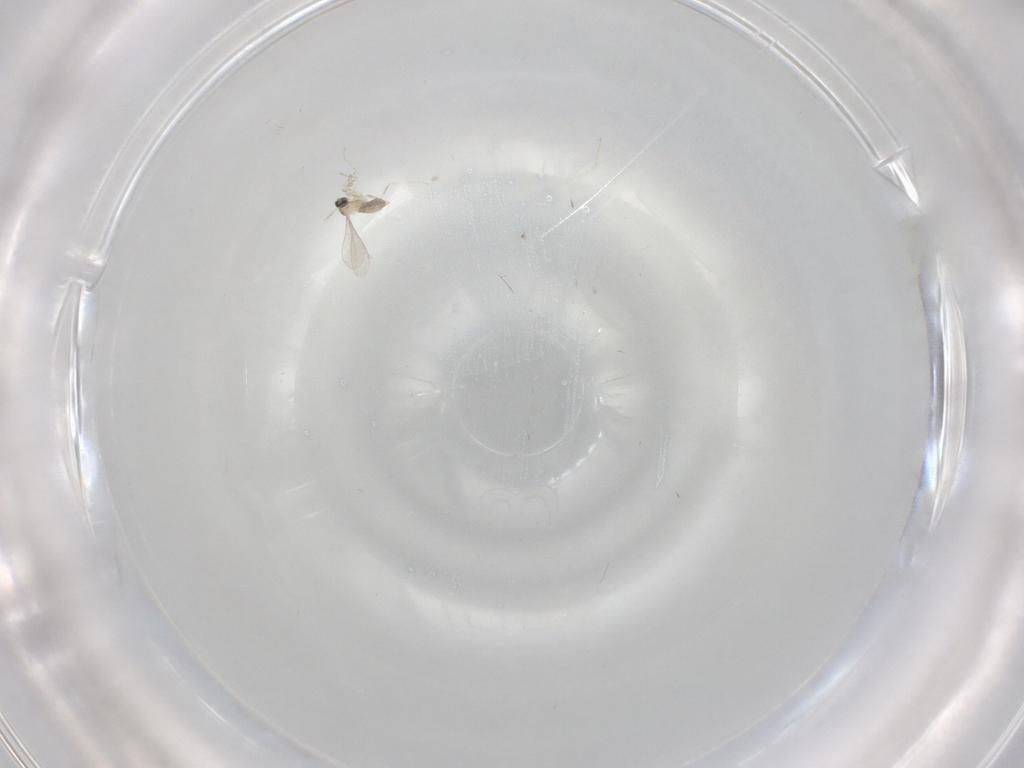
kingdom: Animalia
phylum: Arthropoda
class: Insecta
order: Diptera
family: Cecidomyiidae
